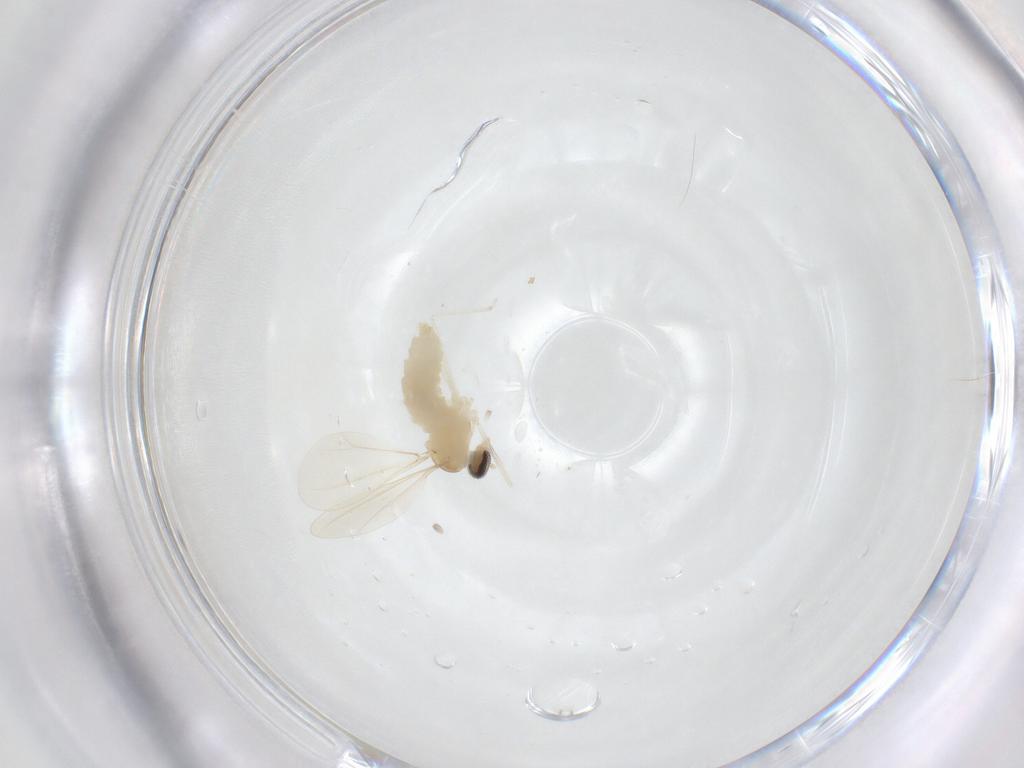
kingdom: Animalia
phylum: Arthropoda
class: Insecta
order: Diptera
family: Cecidomyiidae
